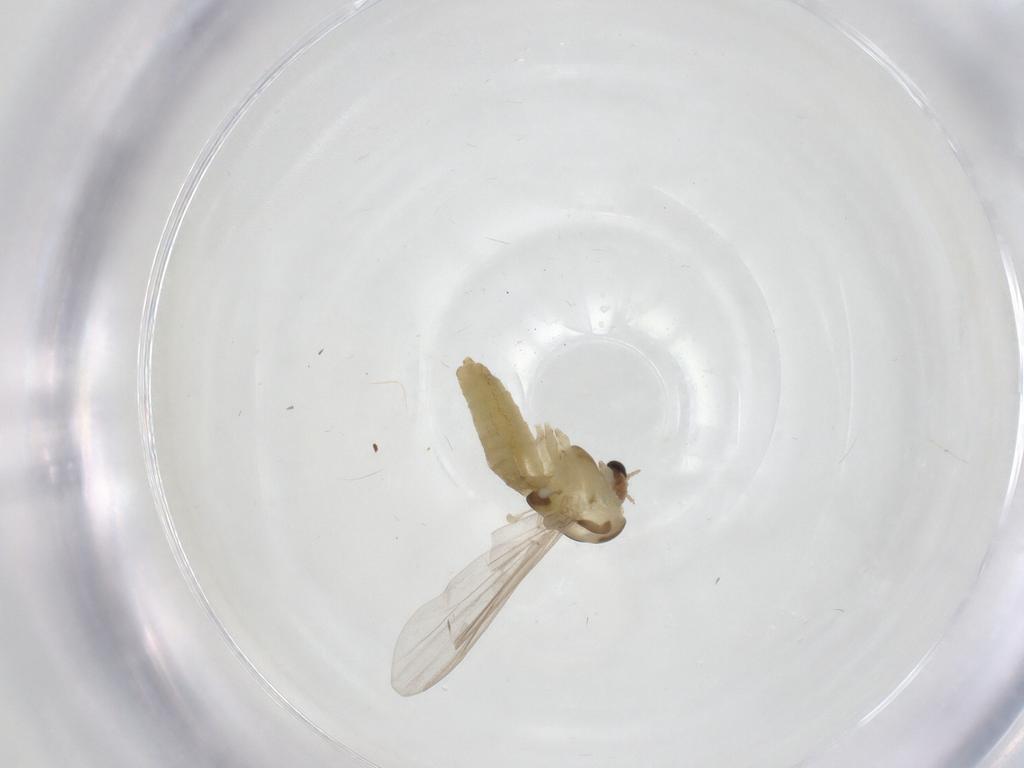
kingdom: Animalia
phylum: Arthropoda
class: Insecta
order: Diptera
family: Chironomidae
